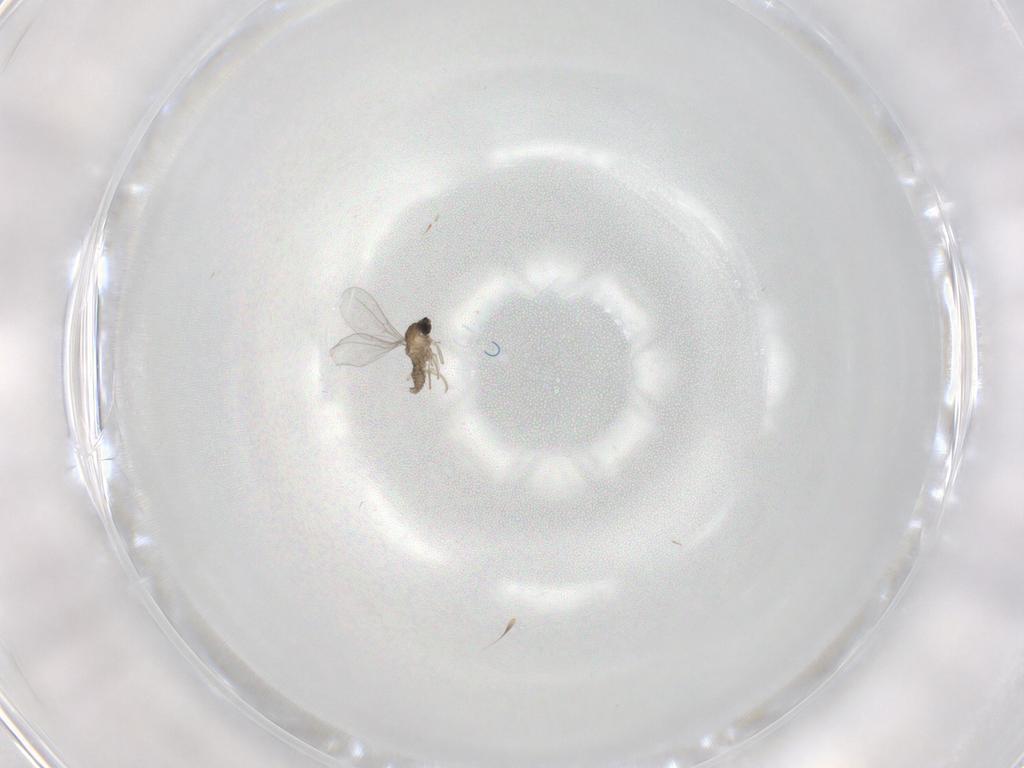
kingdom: Animalia
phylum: Arthropoda
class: Insecta
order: Diptera
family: Cecidomyiidae
